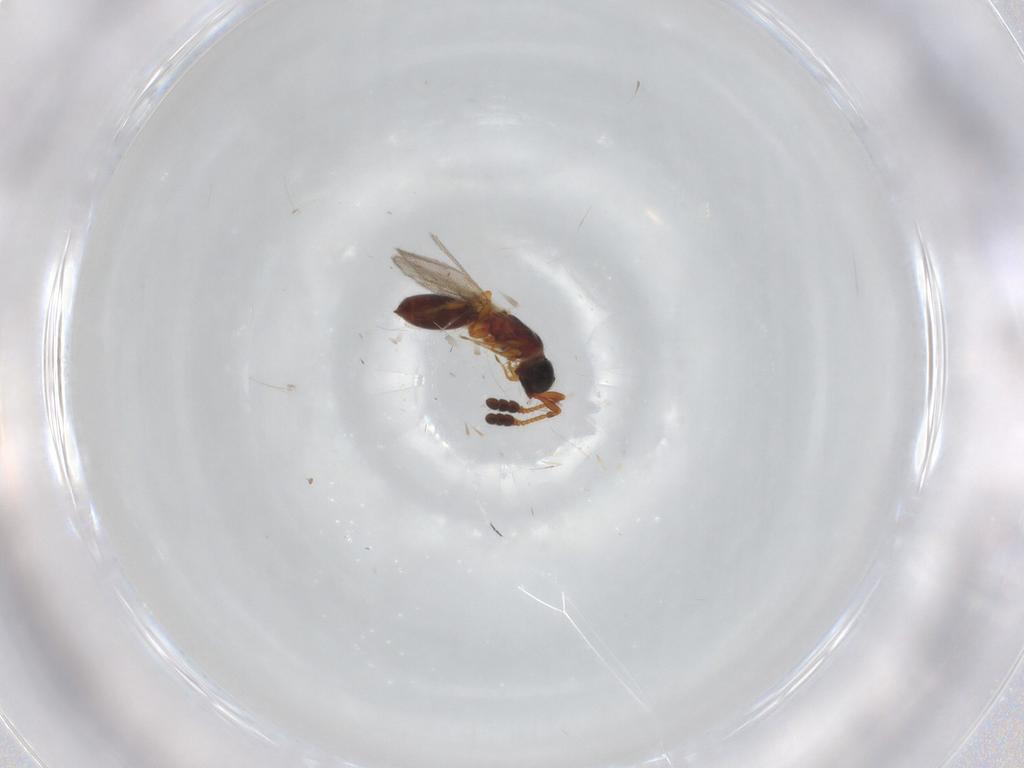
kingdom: Animalia
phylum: Arthropoda
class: Insecta
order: Hymenoptera
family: Diapriidae
